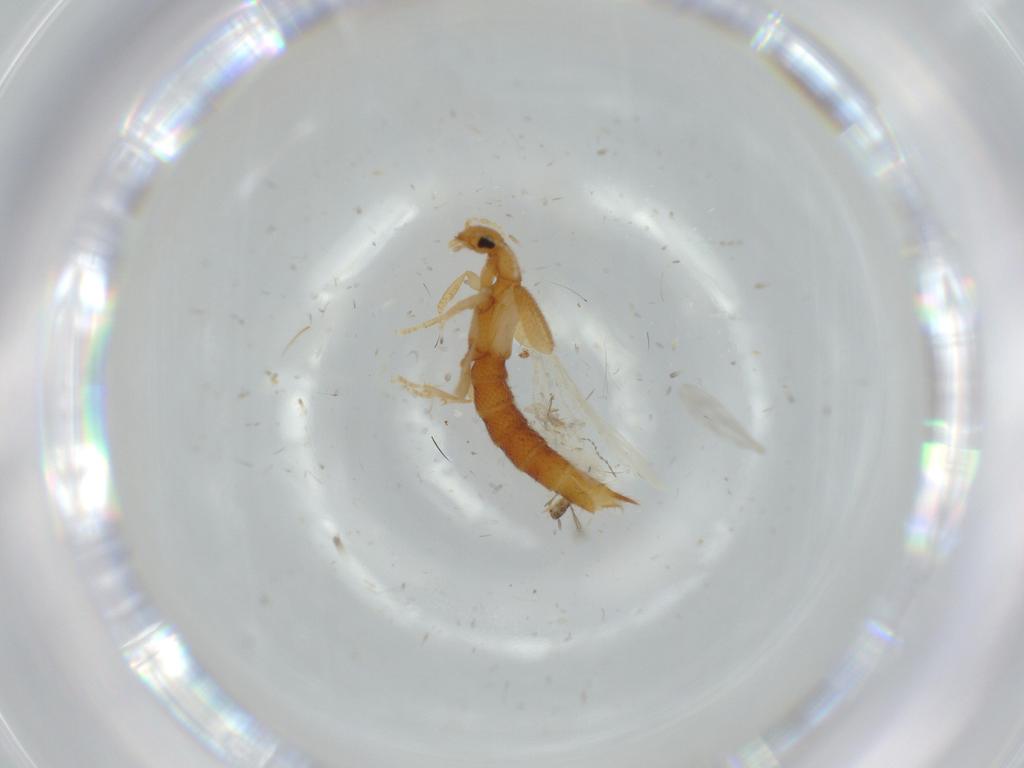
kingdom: Animalia
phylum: Arthropoda
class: Insecta
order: Coleoptera
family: Staphylinidae
